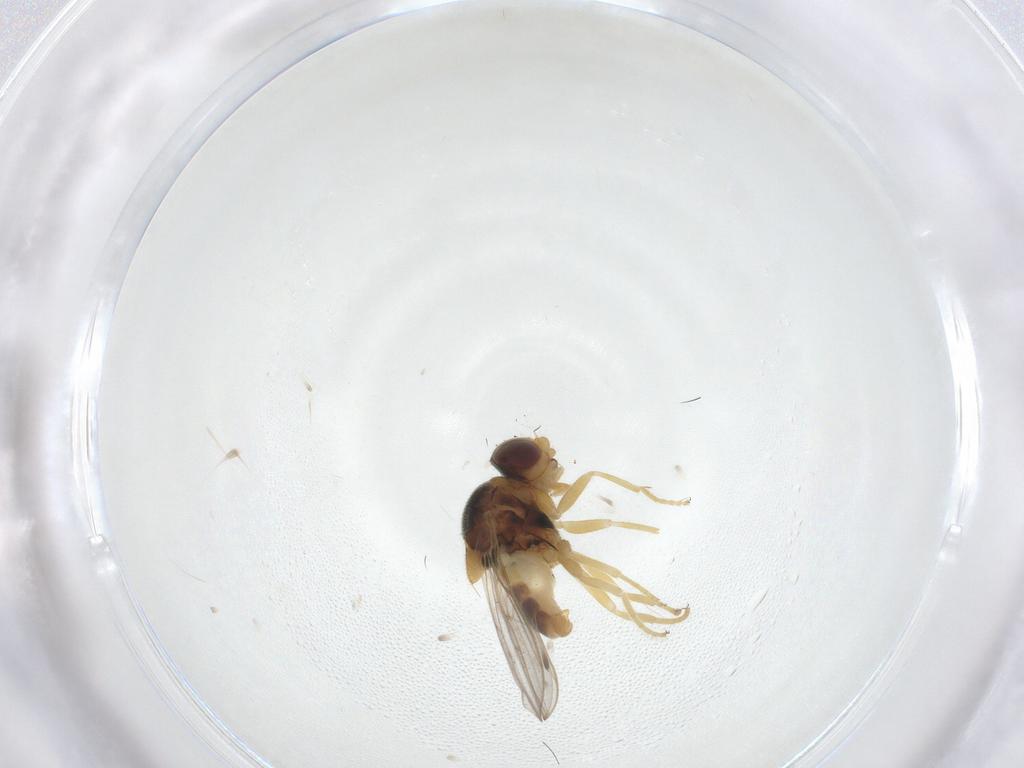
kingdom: Animalia
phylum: Arthropoda
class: Insecta
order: Diptera
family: Chloropidae
